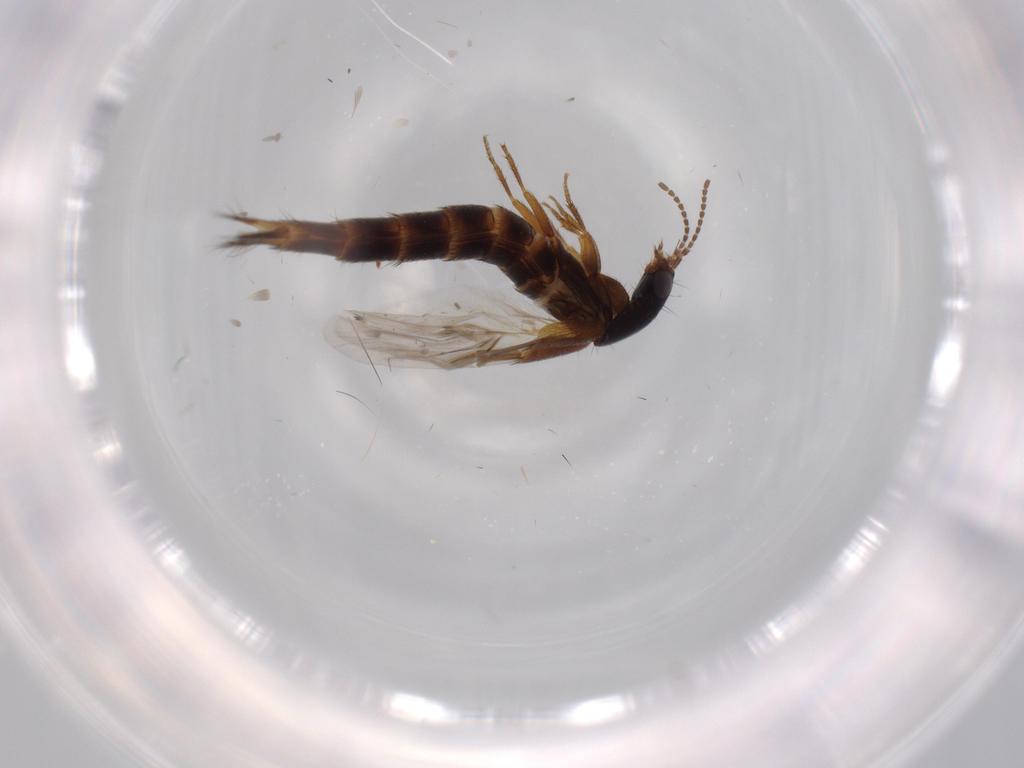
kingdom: Animalia
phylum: Arthropoda
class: Insecta
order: Coleoptera
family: Staphylinidae
